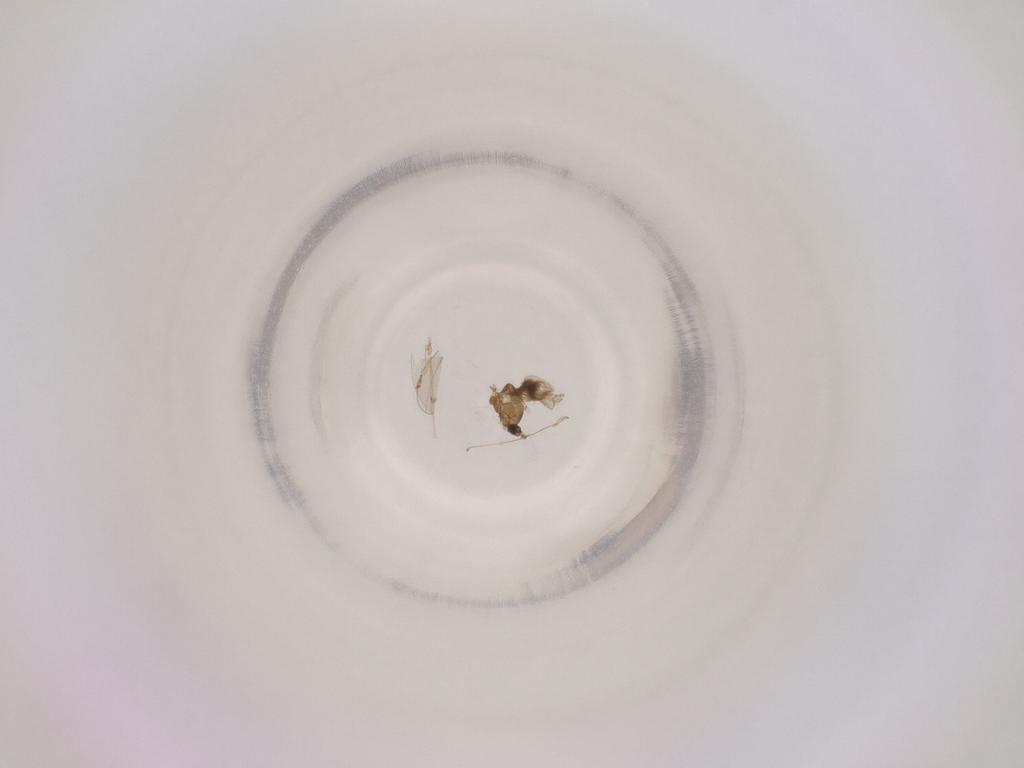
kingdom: Animalia
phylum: Arthropoda
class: Insecta
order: Diptera
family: Cecidomyiidae
